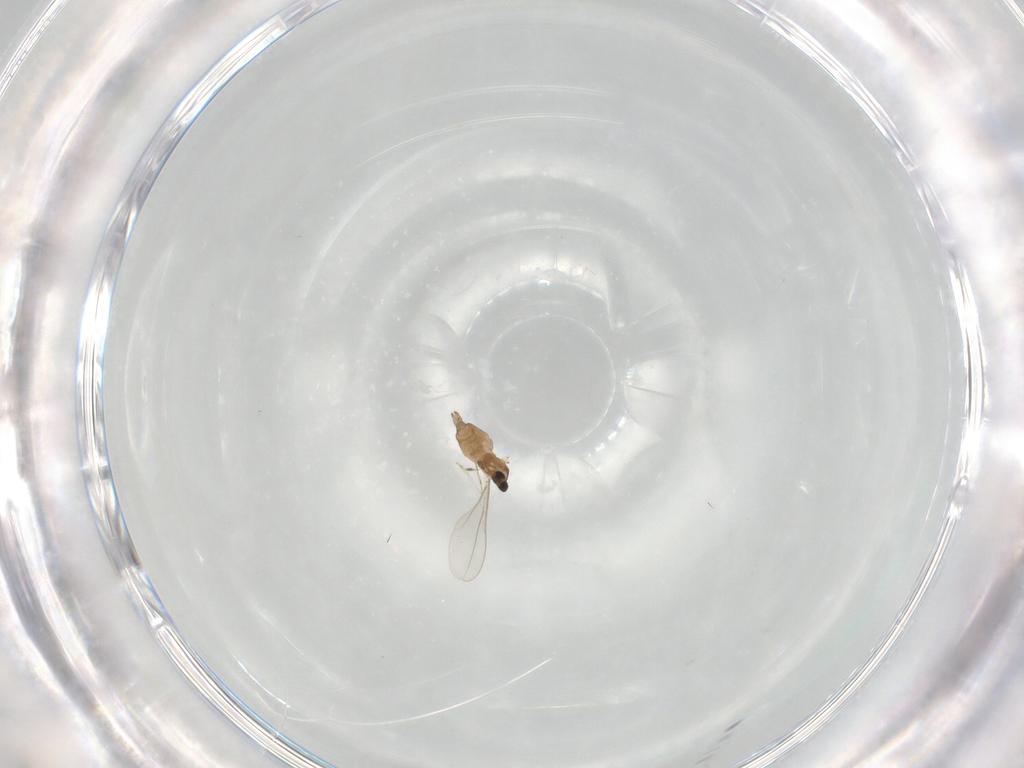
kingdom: Animalia
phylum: Arthropoda
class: Insecta
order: Diptera
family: Cecidomyiidae
